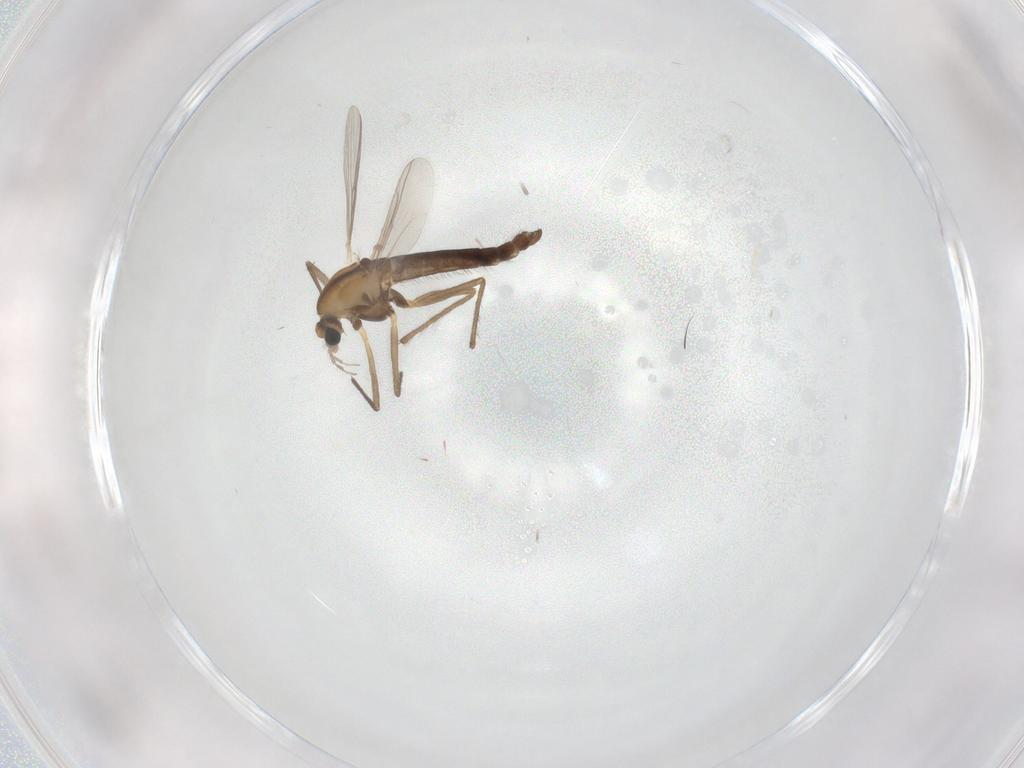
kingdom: Animalia
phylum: Arthropoda
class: Insecta
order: Diptera
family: Chironomidae
